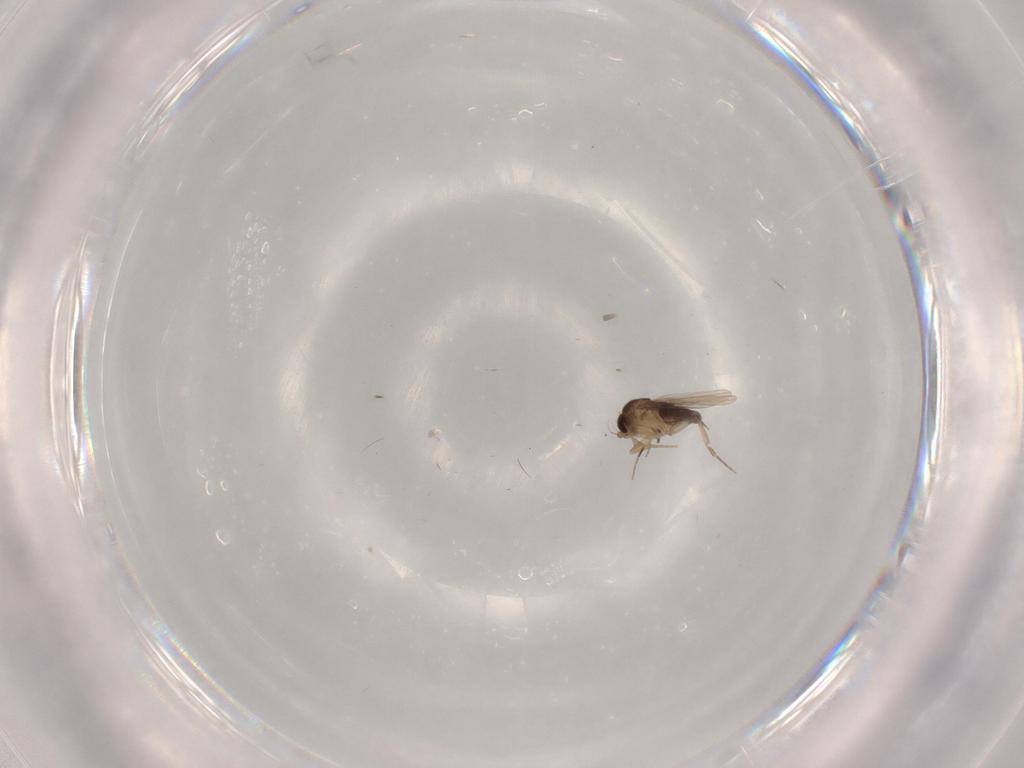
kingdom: Animalia
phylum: Arthropoda
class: Insecta
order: Diptera
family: Phoridae
